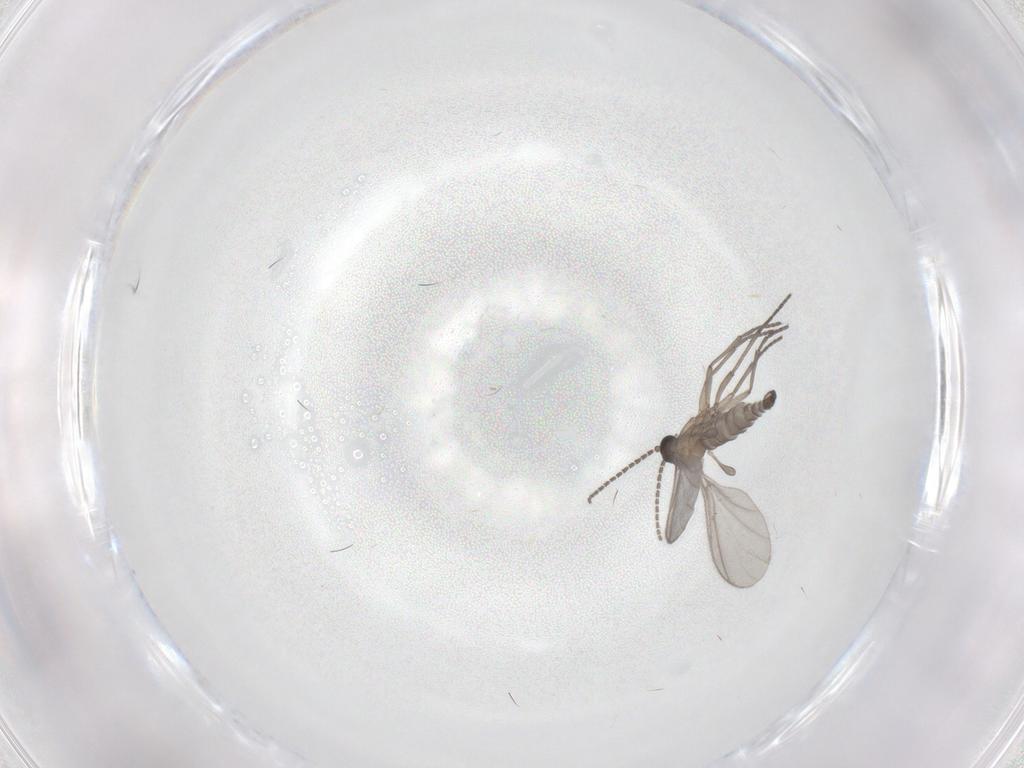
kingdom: Animalia
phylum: Arthropoda
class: Insecta
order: Diptera
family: Sciaridae
